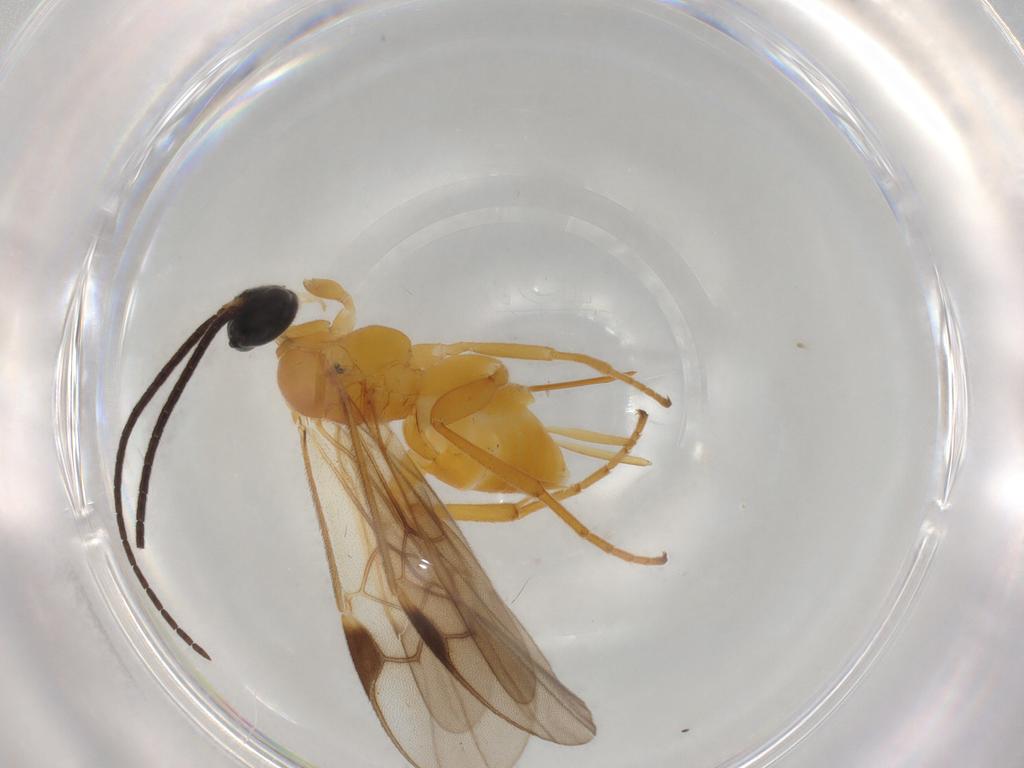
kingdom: Animalia
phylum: Arthropoda
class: Insecta
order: Hymenoptera
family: Braconidae
